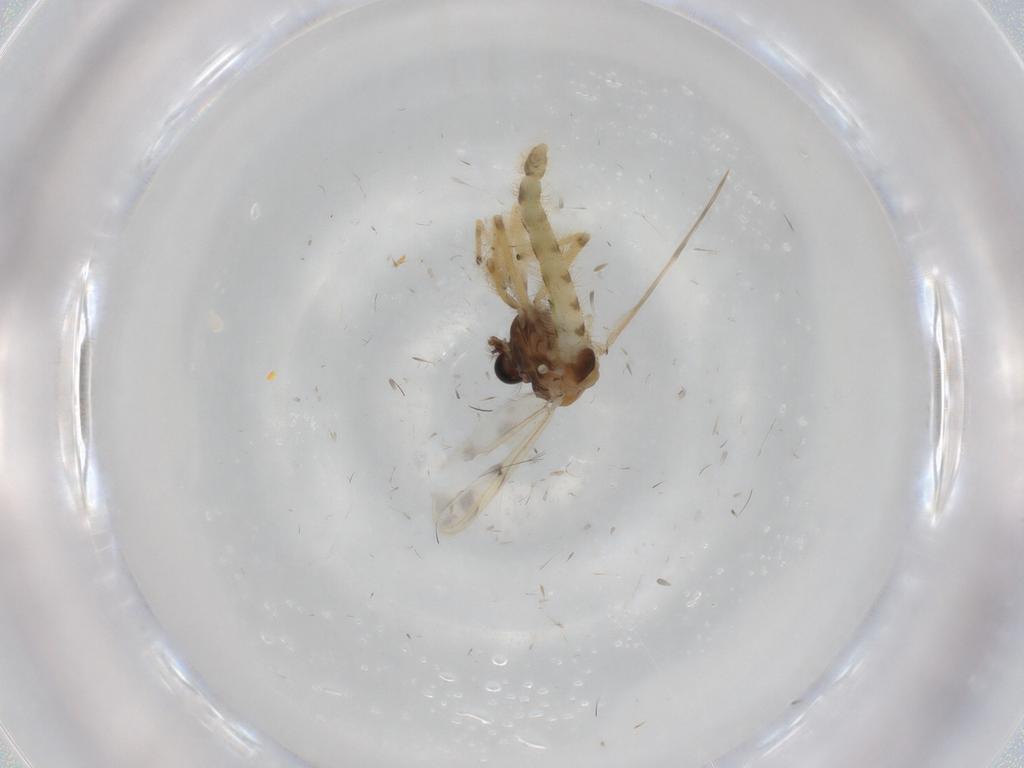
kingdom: Animalia
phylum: Arthropoda
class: Insecta
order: Diptera
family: Chironomidae
